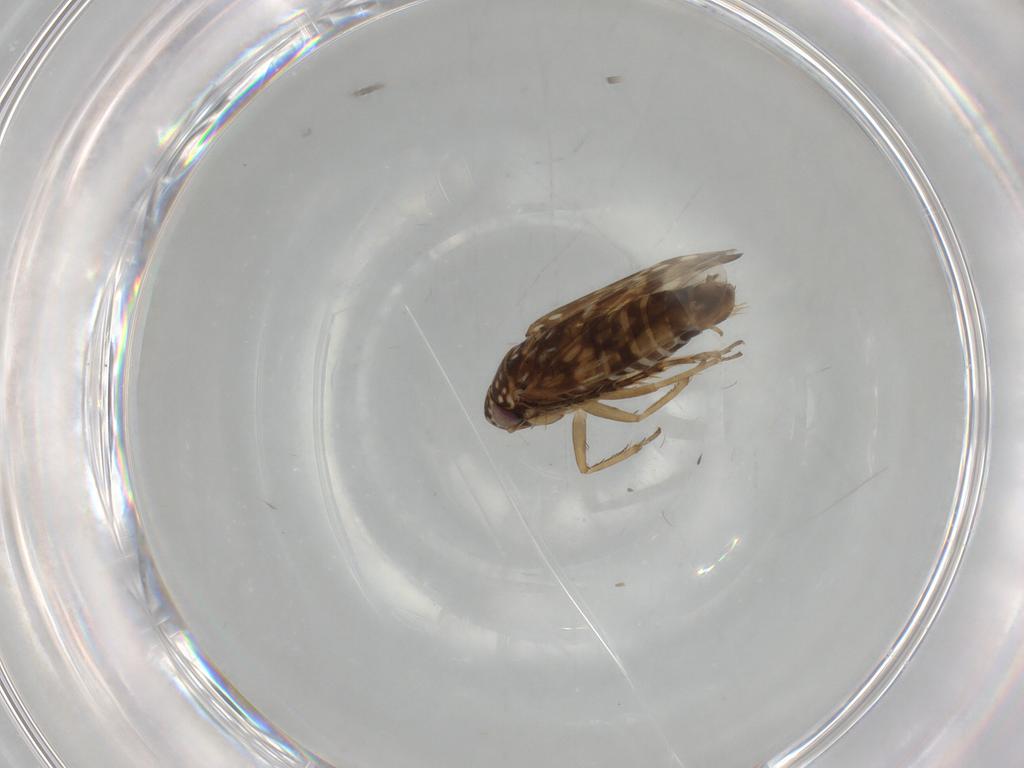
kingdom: Animalia
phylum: Arthropoda
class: Insecta
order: Hemiptera
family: Cicadellidae
